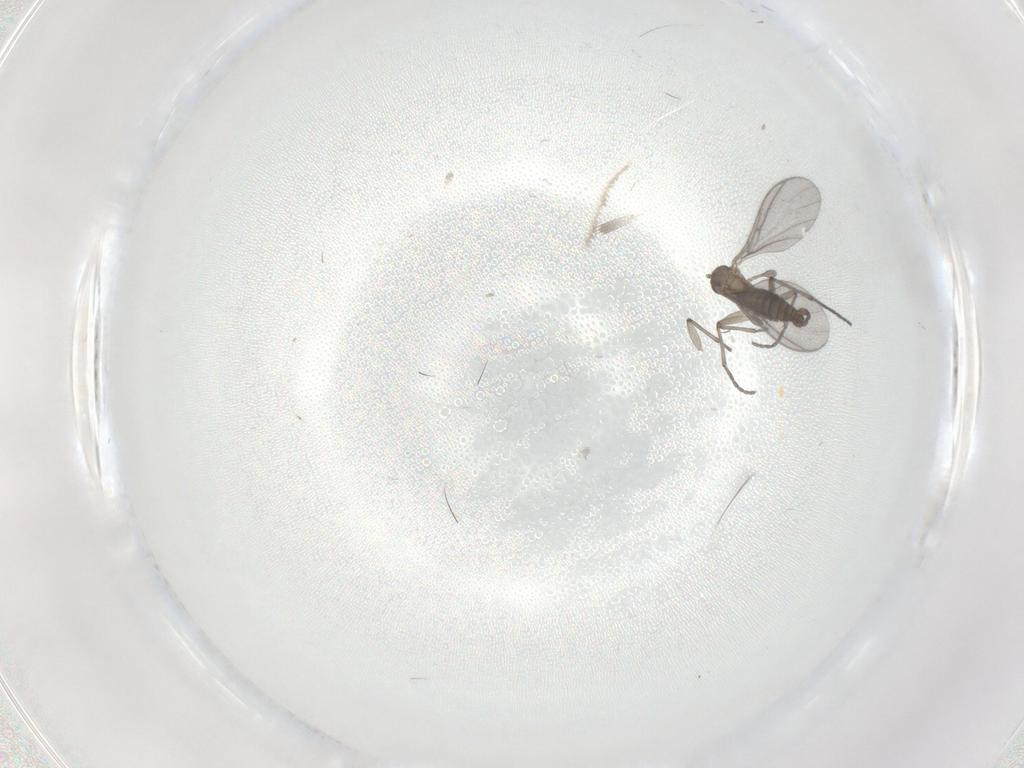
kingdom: Animalia
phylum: Arthropoda
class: Insecta
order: Diptera
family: Sciaridae
